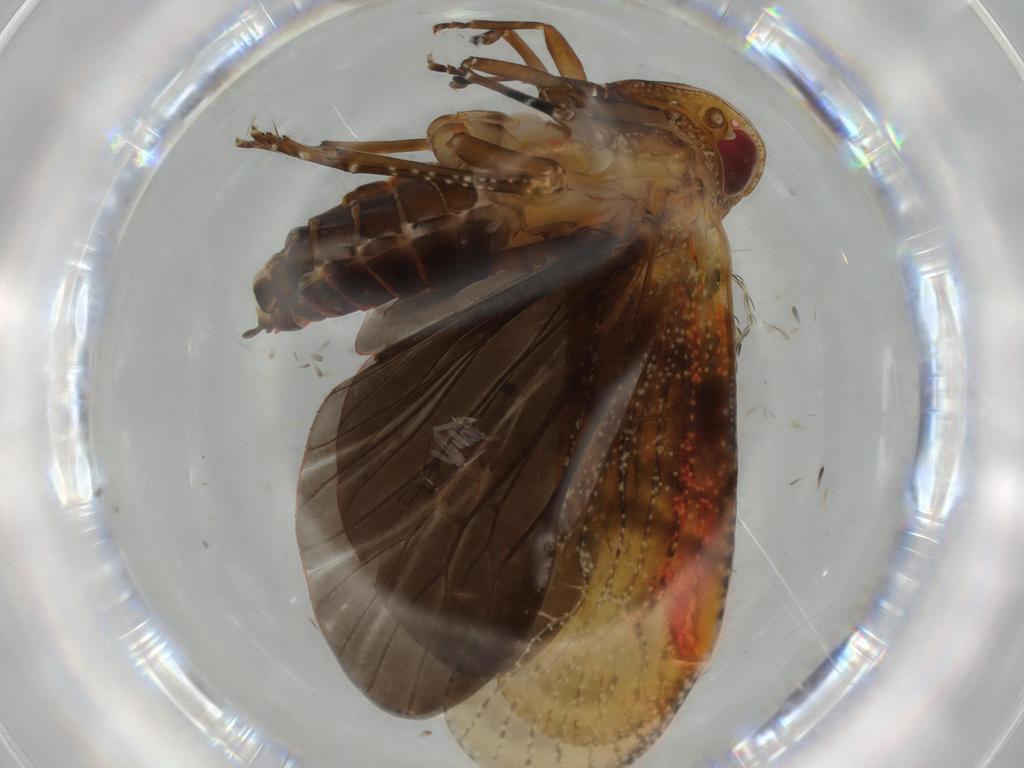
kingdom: Animalia
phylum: Arthropoda
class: Insecta
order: Hemiptera
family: Achilidae
